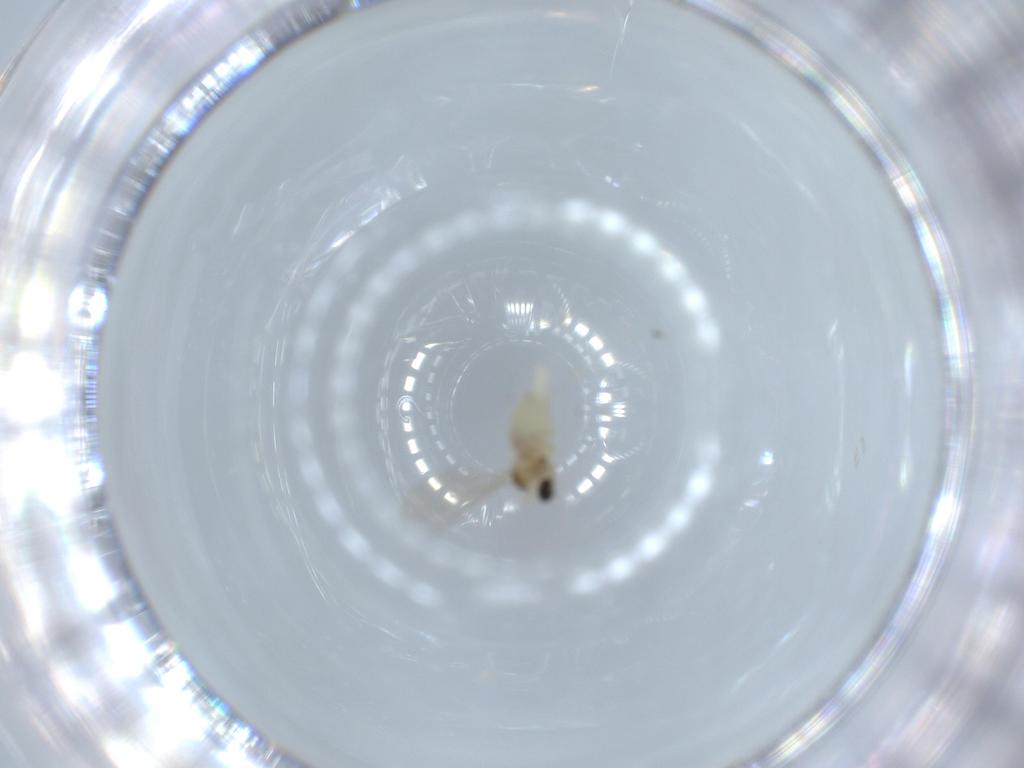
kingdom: Animalia
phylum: Arthropoda
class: Insecta
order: Diptera
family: Cecidomyiidae
